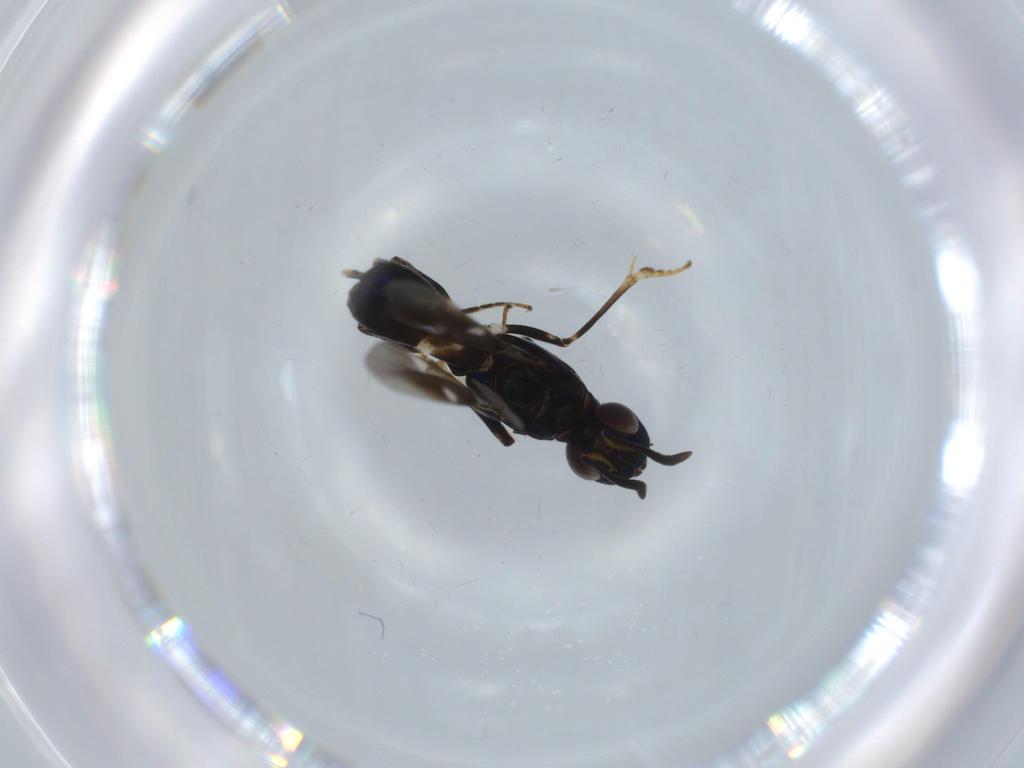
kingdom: Animalia
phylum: Arthropoda
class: Insecta
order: Hymenoptera
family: Eupelmidae
